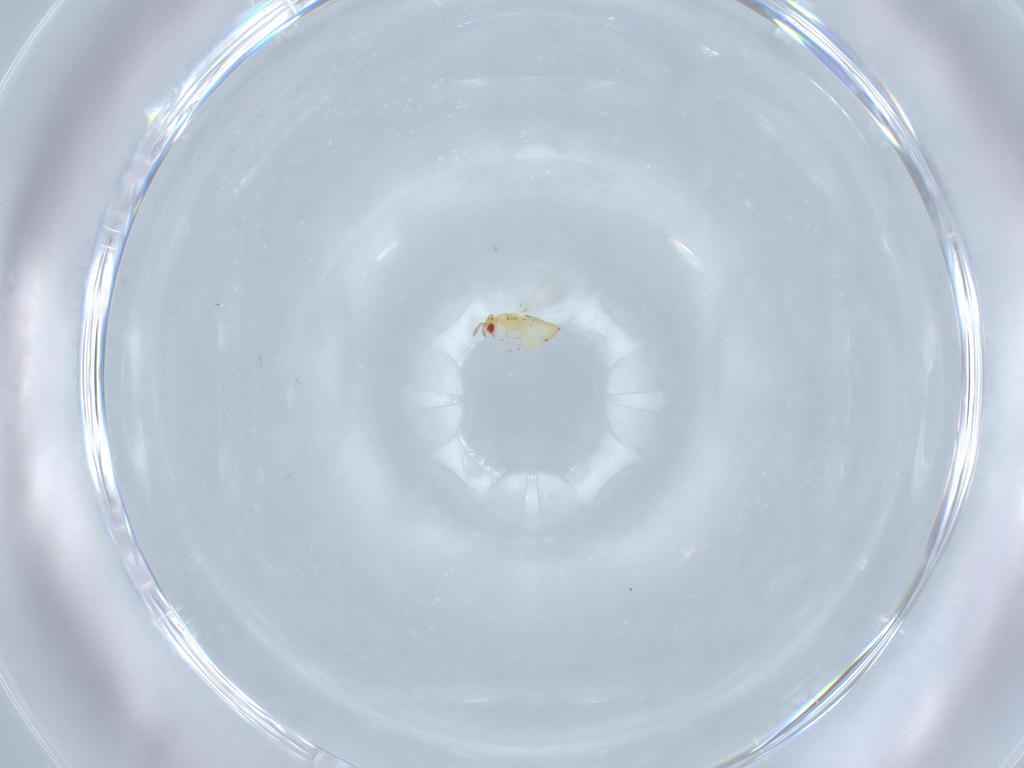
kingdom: Animalia
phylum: Arthropoda
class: Insecta
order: Hymenoptera
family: Trichogrammatidae
